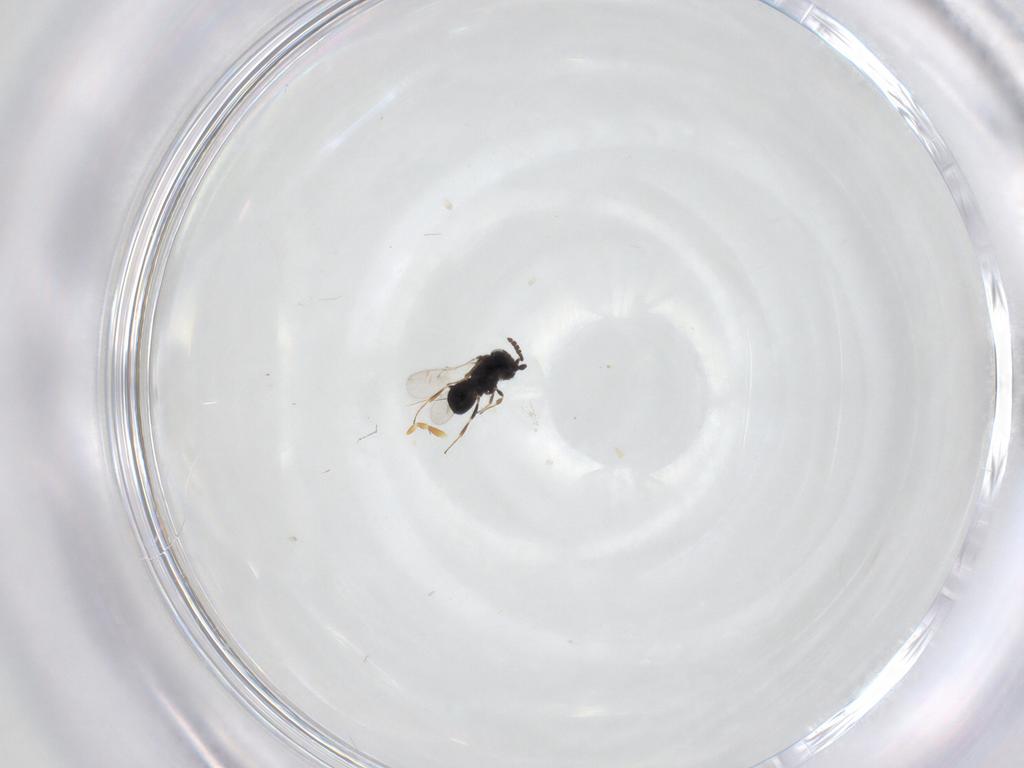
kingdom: Animalia
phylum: Arthropoda
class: Insecta
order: Hymenoptera
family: Scelionidae
